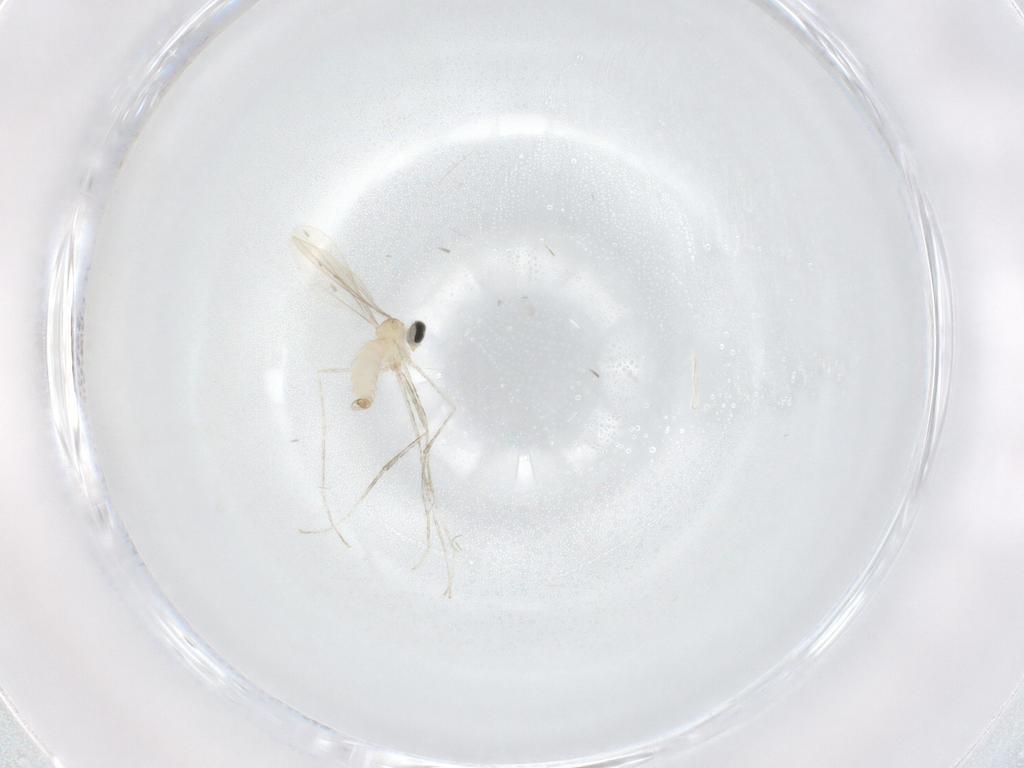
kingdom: Animalia
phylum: Arthropoda
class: Insecta
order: Diptera
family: Cecidomyiidae
